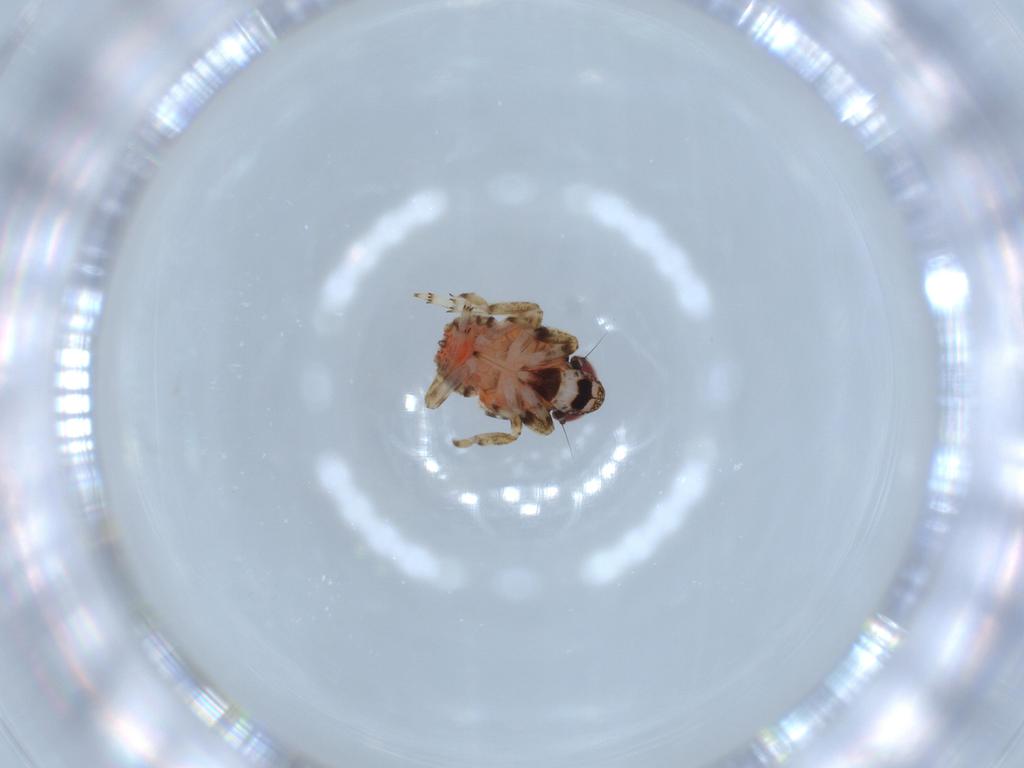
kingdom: Animalia
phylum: Arthropoda
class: Insecta
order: Hemiptera
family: Issidae
